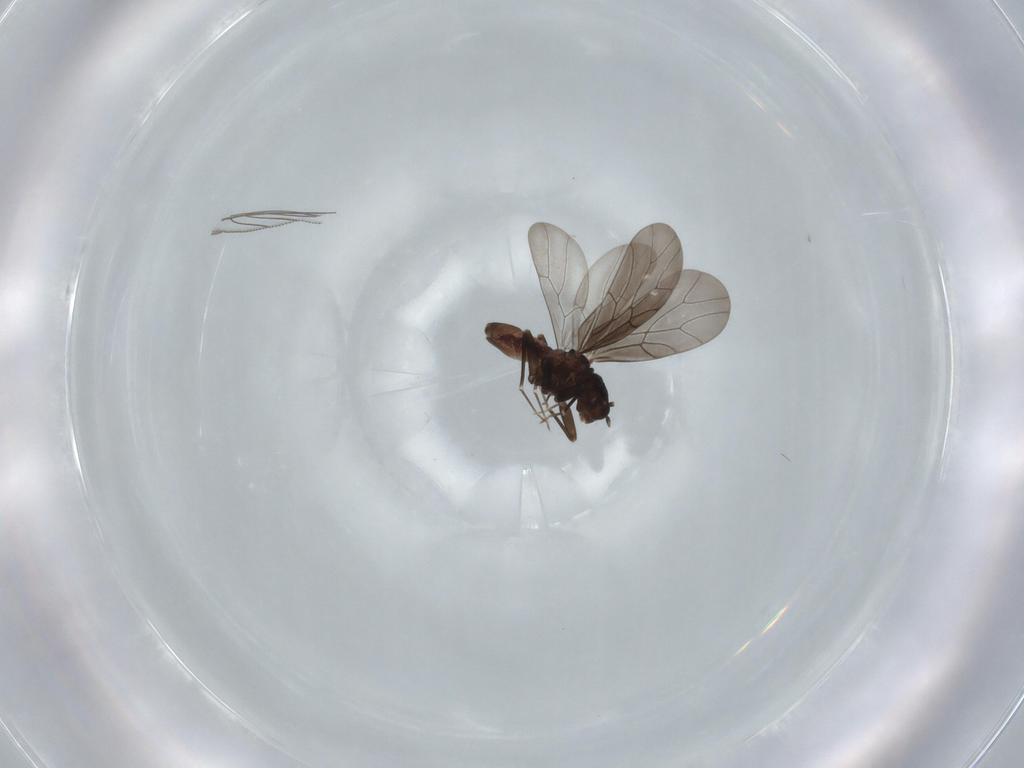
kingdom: Animalia
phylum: Arthropoda
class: Insecta
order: Psocodea
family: Lepidopsocidae
